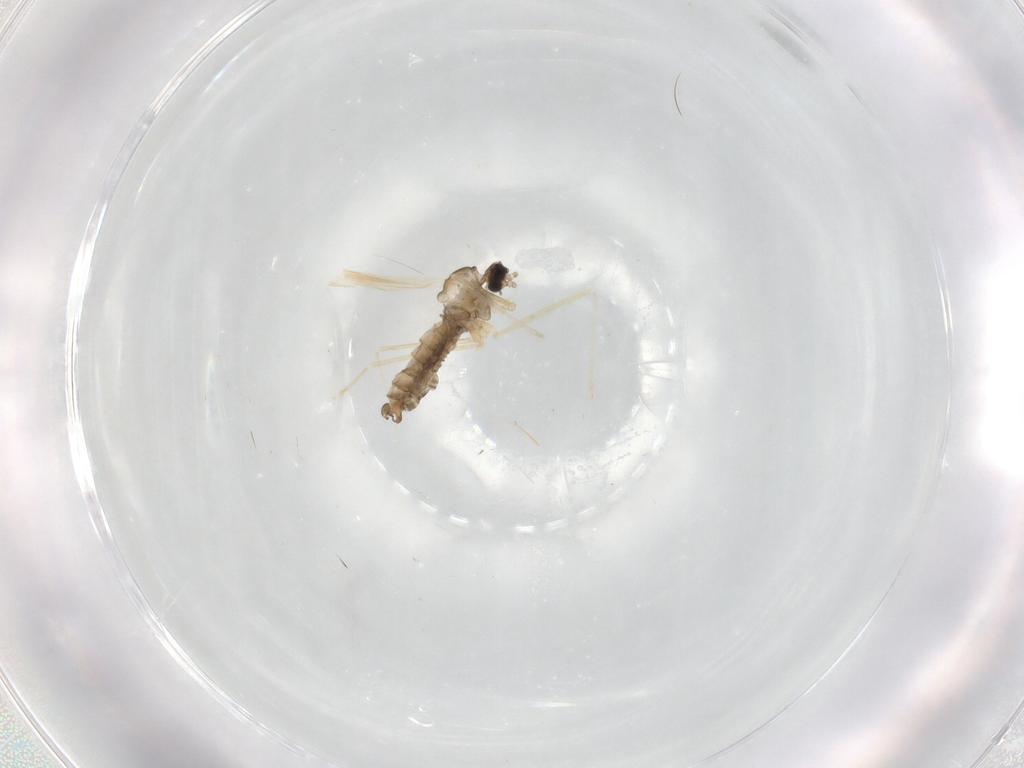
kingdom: Animalia
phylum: Arthropoda
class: Insecta
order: Diptera
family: Cecidomyiidae
